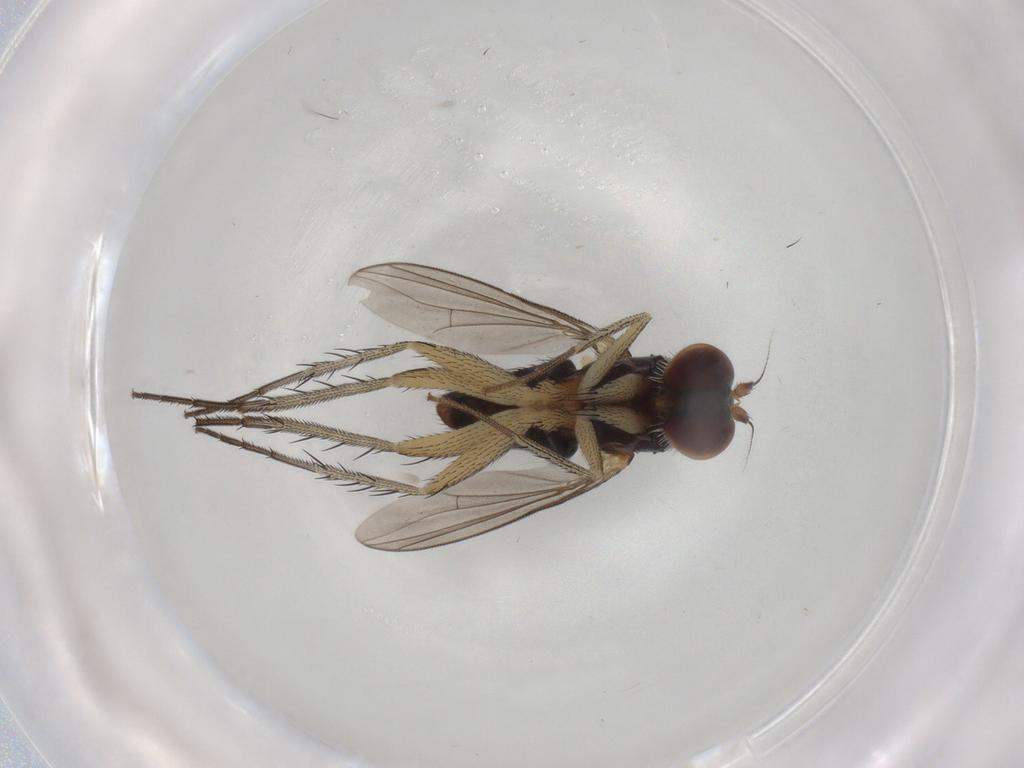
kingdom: Animalia
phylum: Arthropoda
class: Insecta
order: Diptera
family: Dolichopodidae
